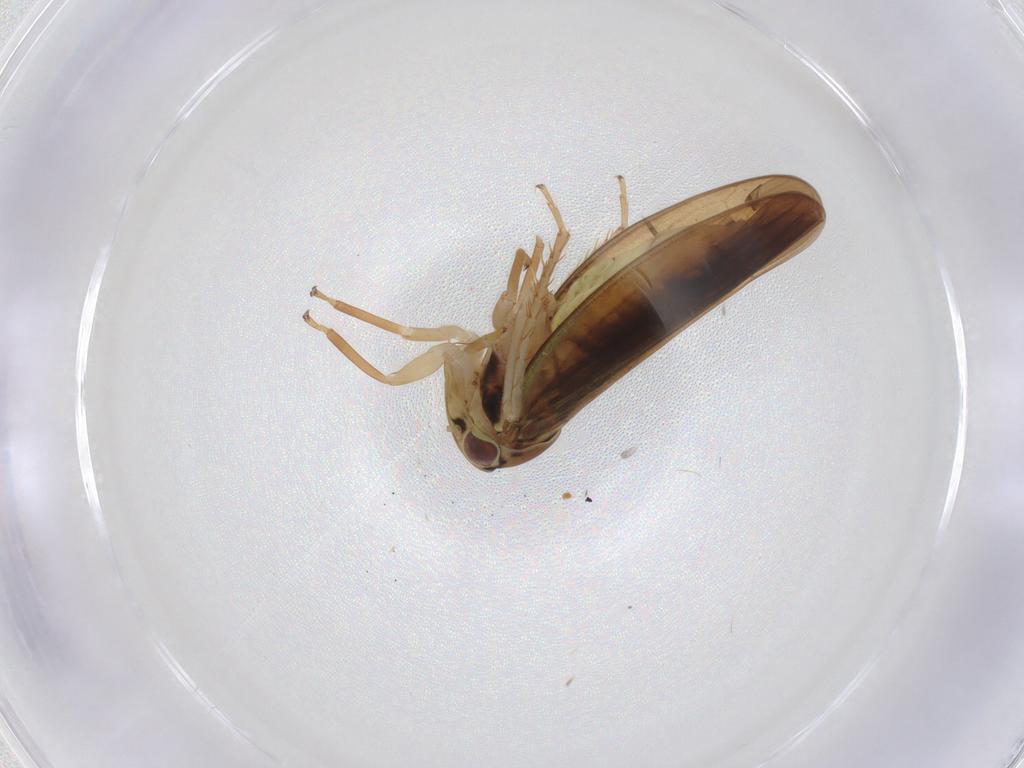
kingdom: Animalia
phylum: Arthropoda
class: Insecta
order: Hemiptera
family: Cicadellidae
